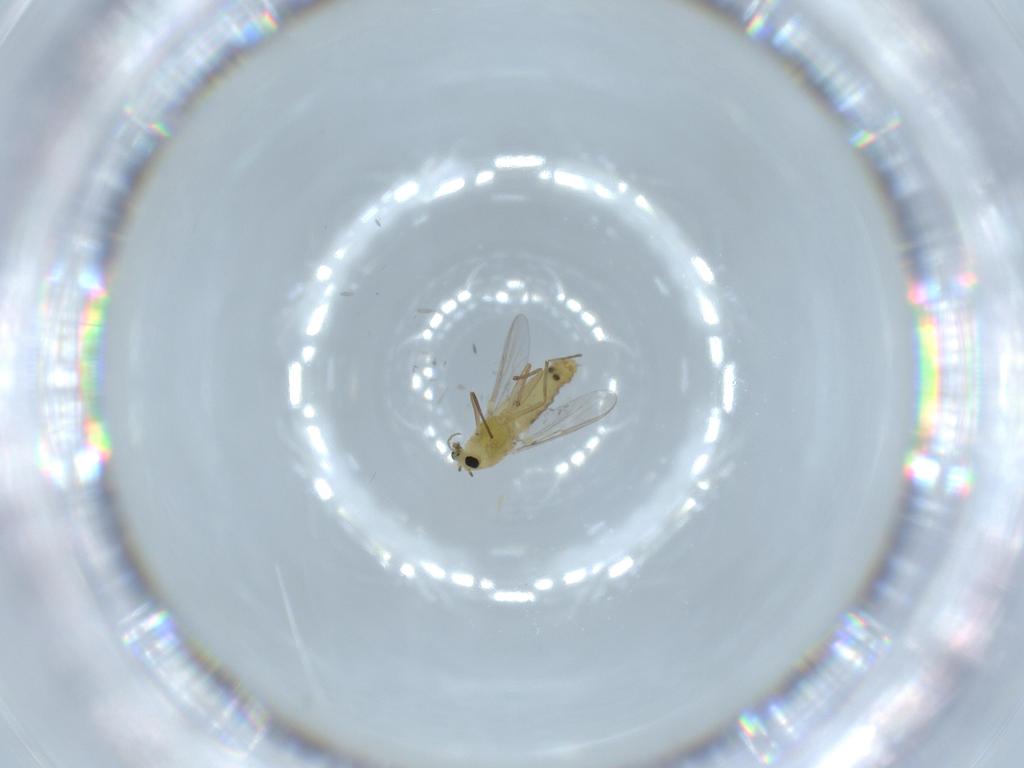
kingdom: Animalia
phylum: Arthropoda
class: Insecta
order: Diptera
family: Chironomidae
